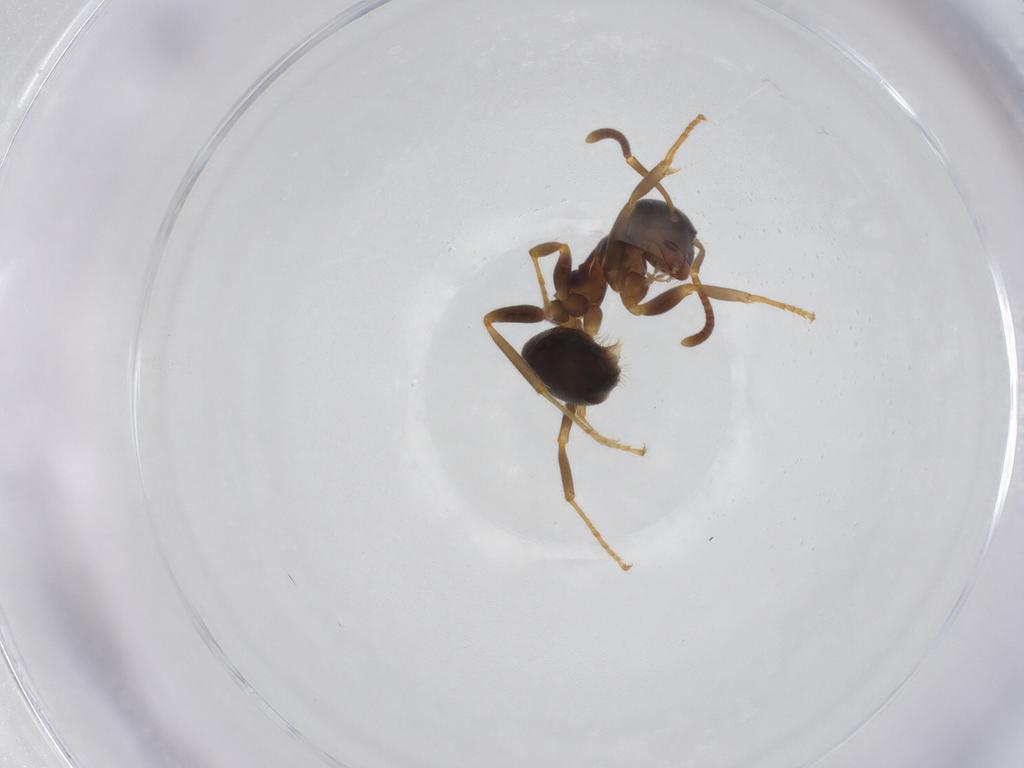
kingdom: Animalia
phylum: Arthropoda
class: Insecta
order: Hymenoptera
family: Formicidae
